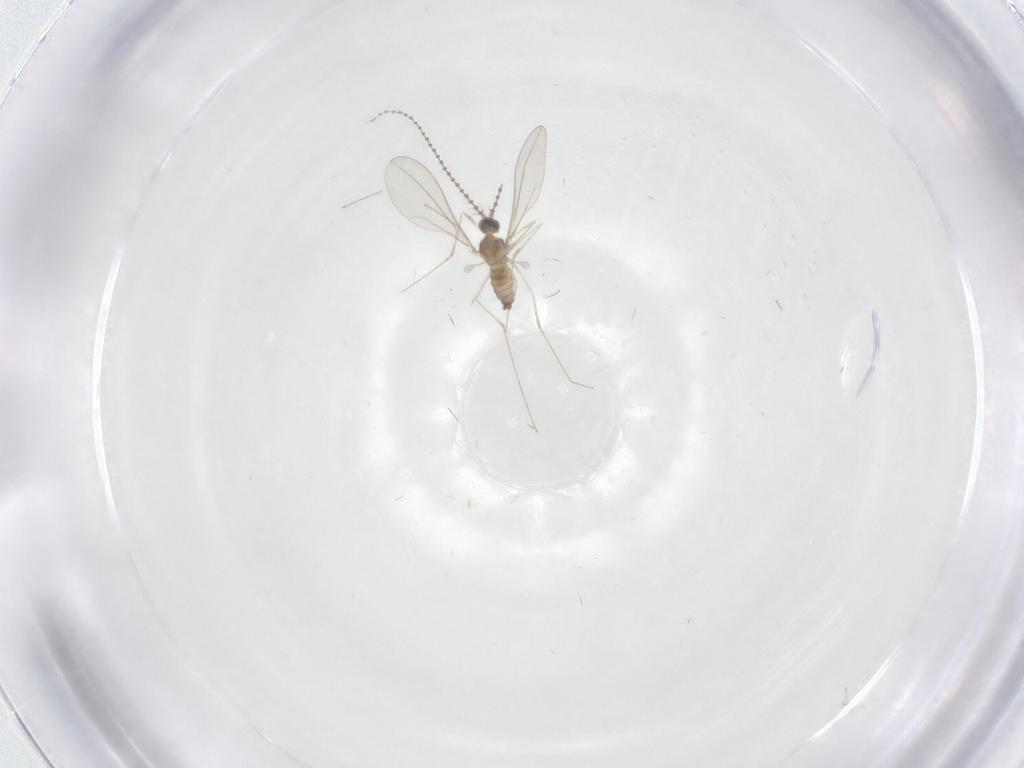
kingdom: Animalia
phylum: Arthropoda
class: Insecta
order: Diptera
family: Cecidomyiidae
